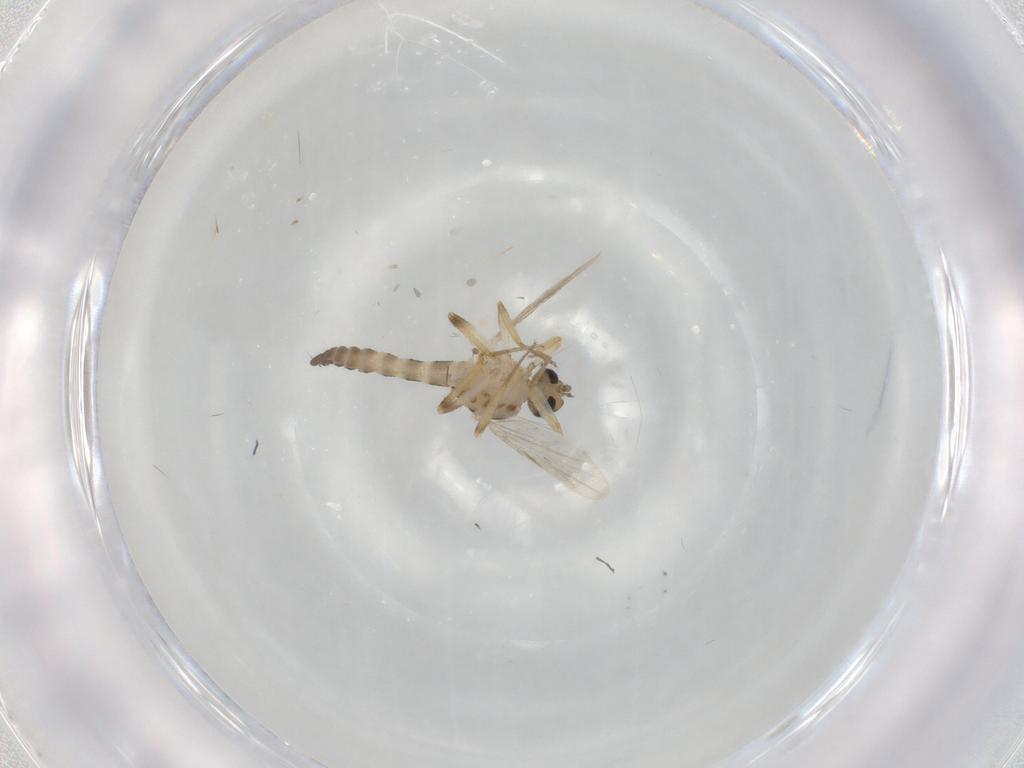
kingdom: Animalia
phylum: Arthropoda
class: Insecta
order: Diptera
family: Ceratopogonidae
